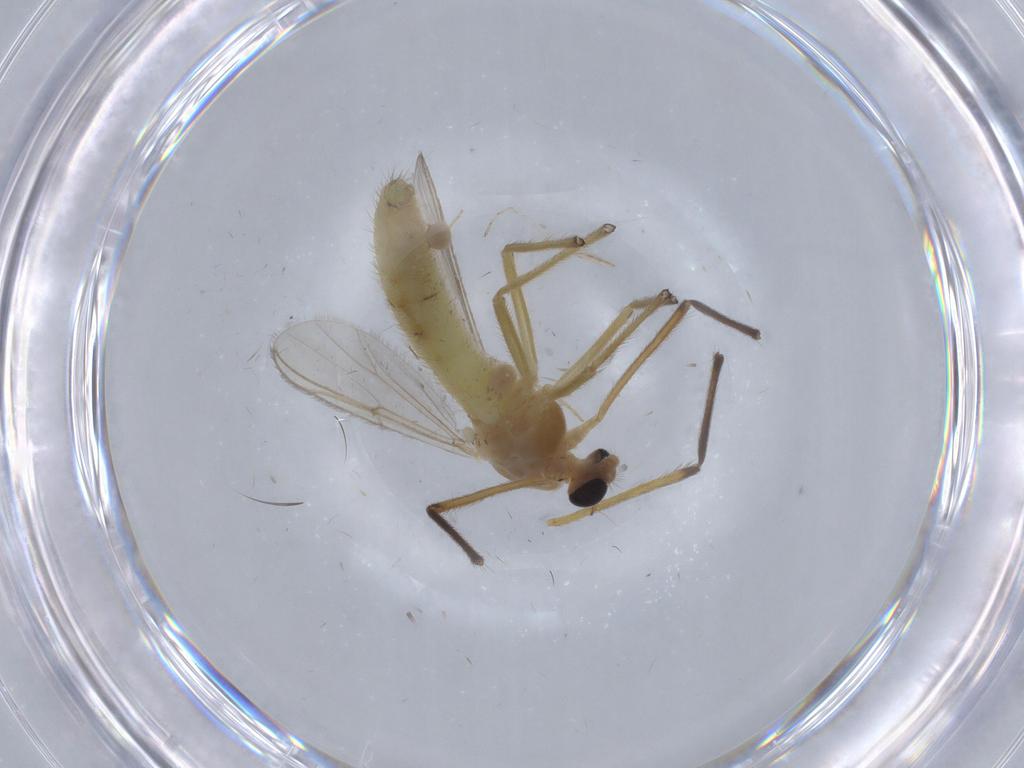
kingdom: Animalia
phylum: Arthropoda
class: Insecta
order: Diptera
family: Chironomidae
